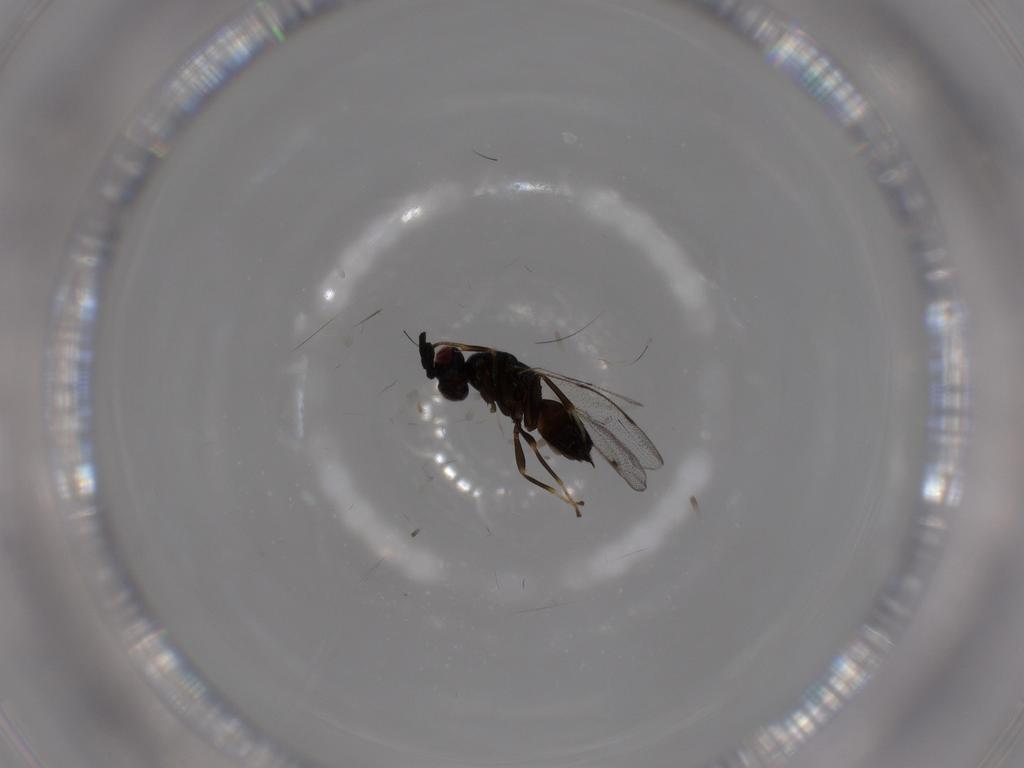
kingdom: Animalia
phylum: Arthropoda
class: Insecta
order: Hymenoptera
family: Torymidae
